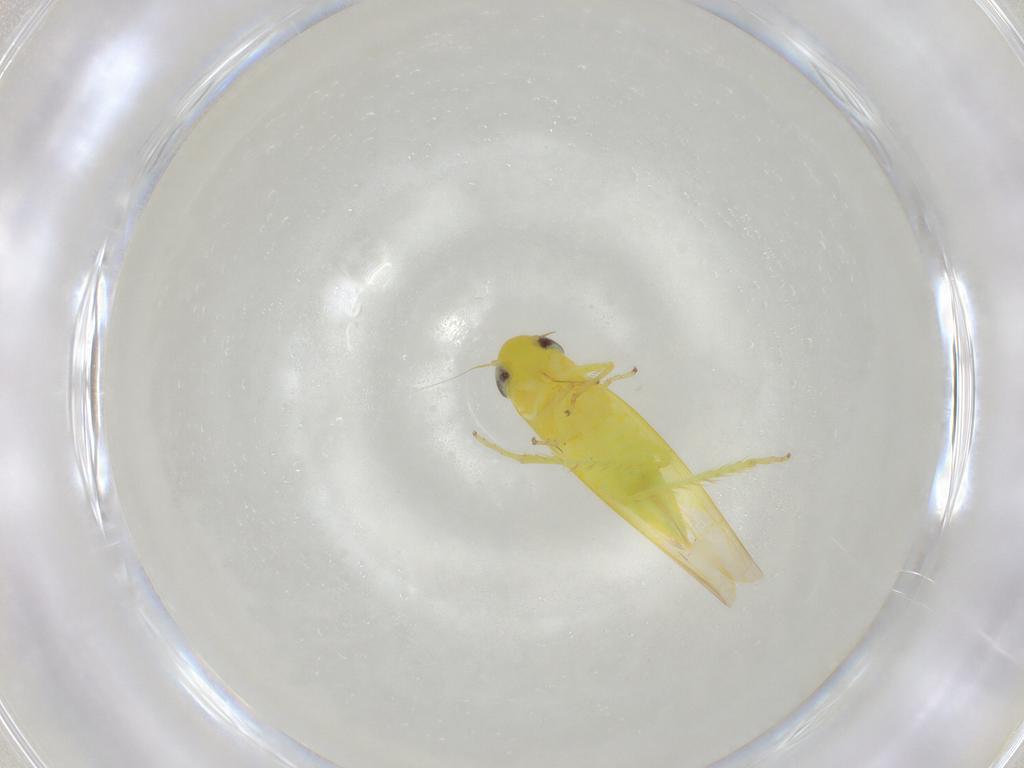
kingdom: Animalia
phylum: Arthropoda
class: Insecta
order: Hemiptera
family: Cicadellidae
